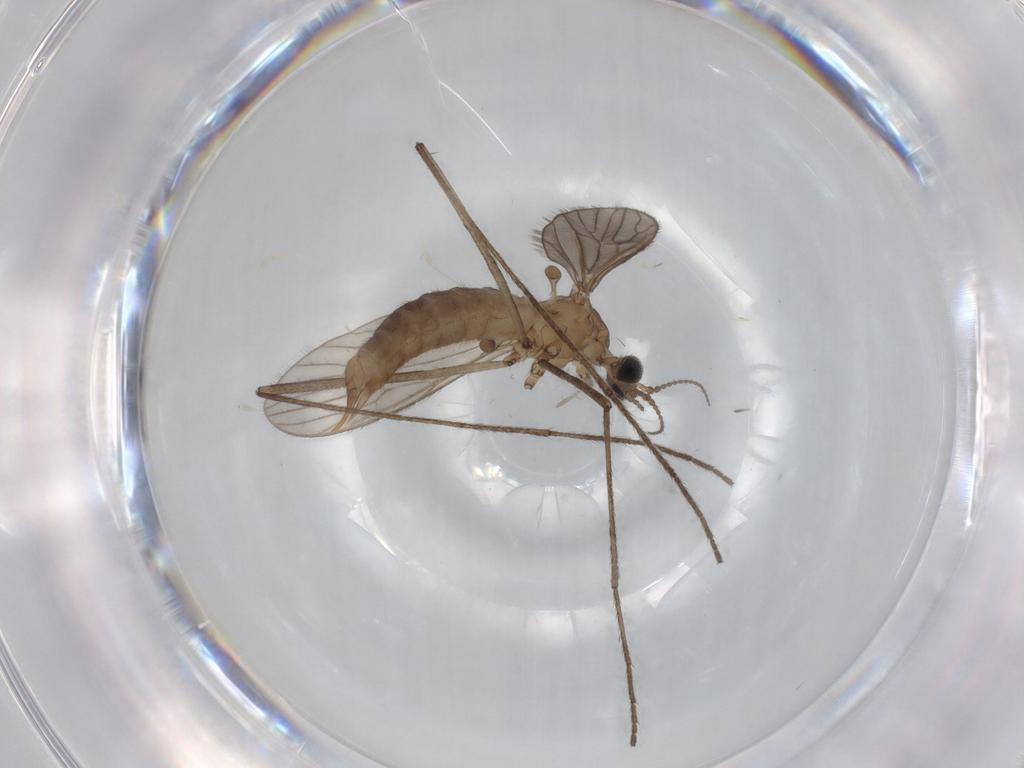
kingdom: Animalia
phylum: Arthropoda
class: Insecta
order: Diptera
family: Limoniidae
